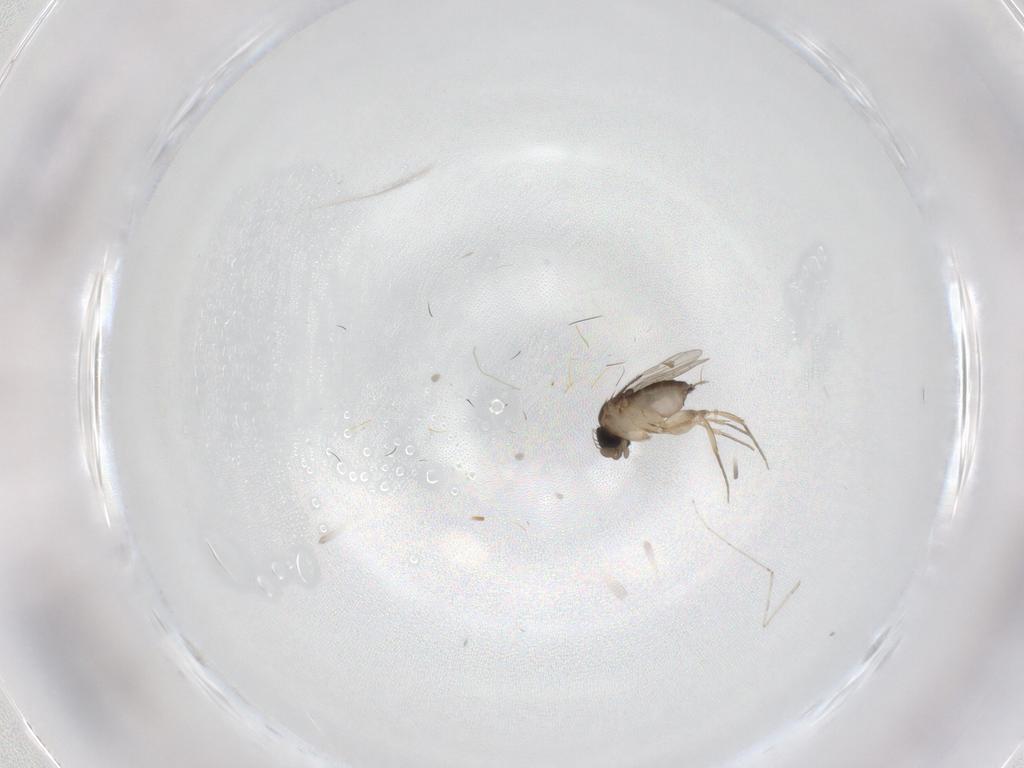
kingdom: Animalia
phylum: Arthropoda
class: Insecta
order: Diptera
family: Phoridae
